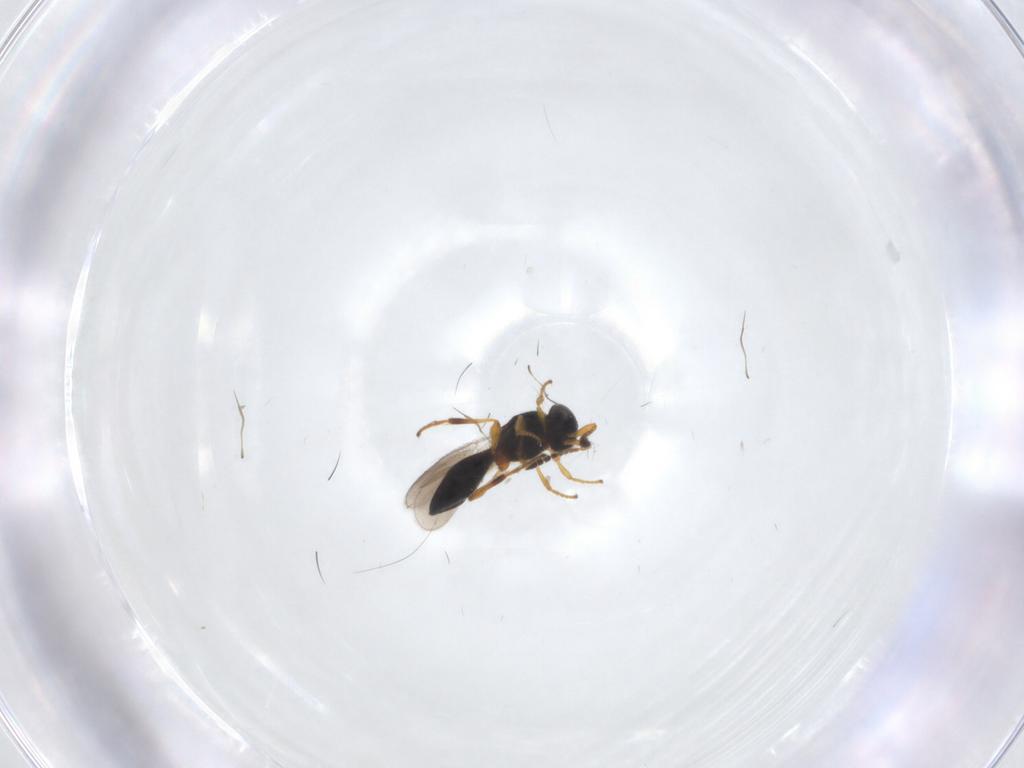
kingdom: Animalia
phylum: Arthropoda
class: Insecta
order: Hymenoptera
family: Platygastridae
